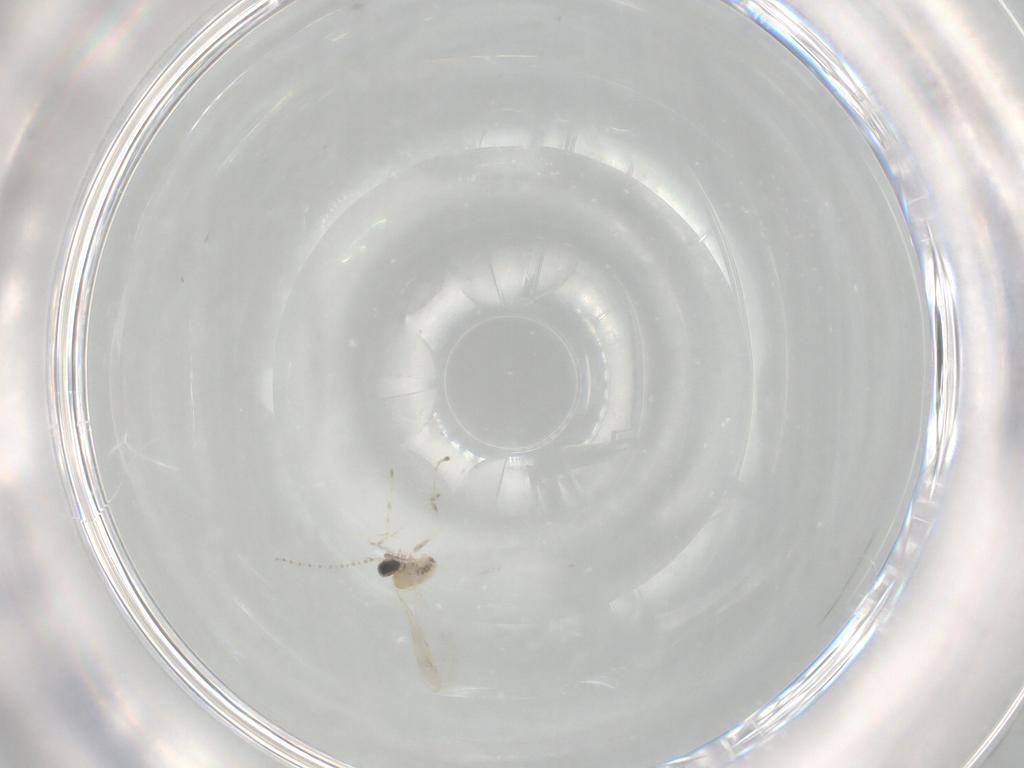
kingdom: Animalia
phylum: Arthropoda
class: Insecta
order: Diptera
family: Cecidomyiidae
